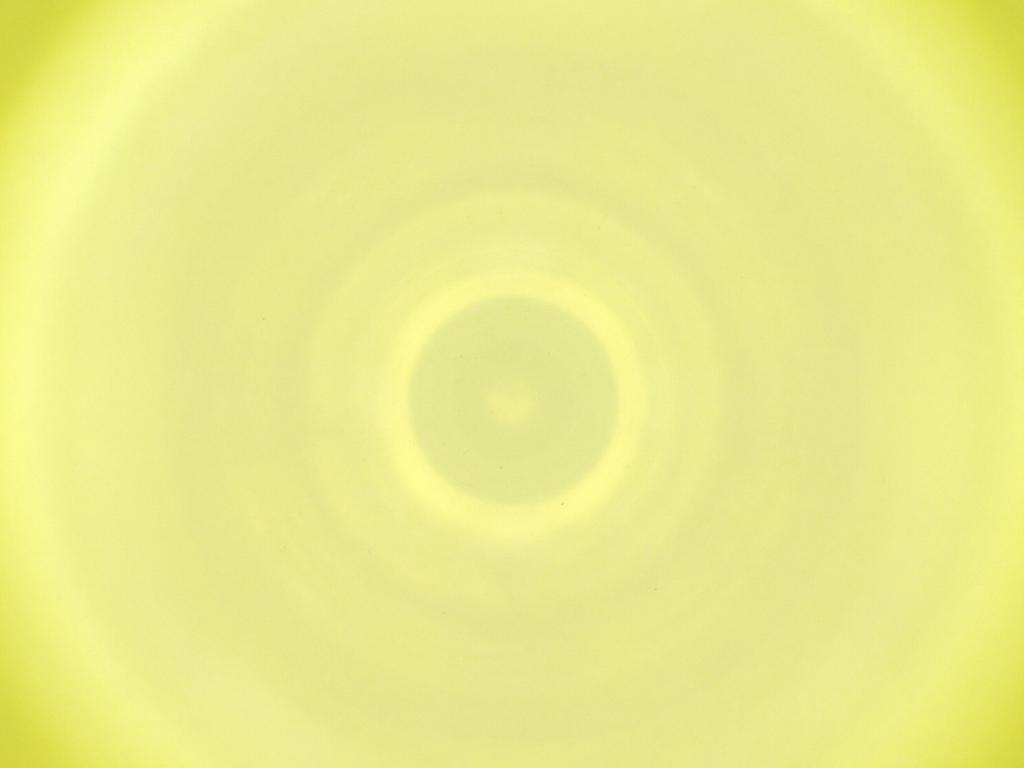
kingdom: Animalia
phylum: Arthropoda
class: Insecta
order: Diptera
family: Cecidomyiidae
